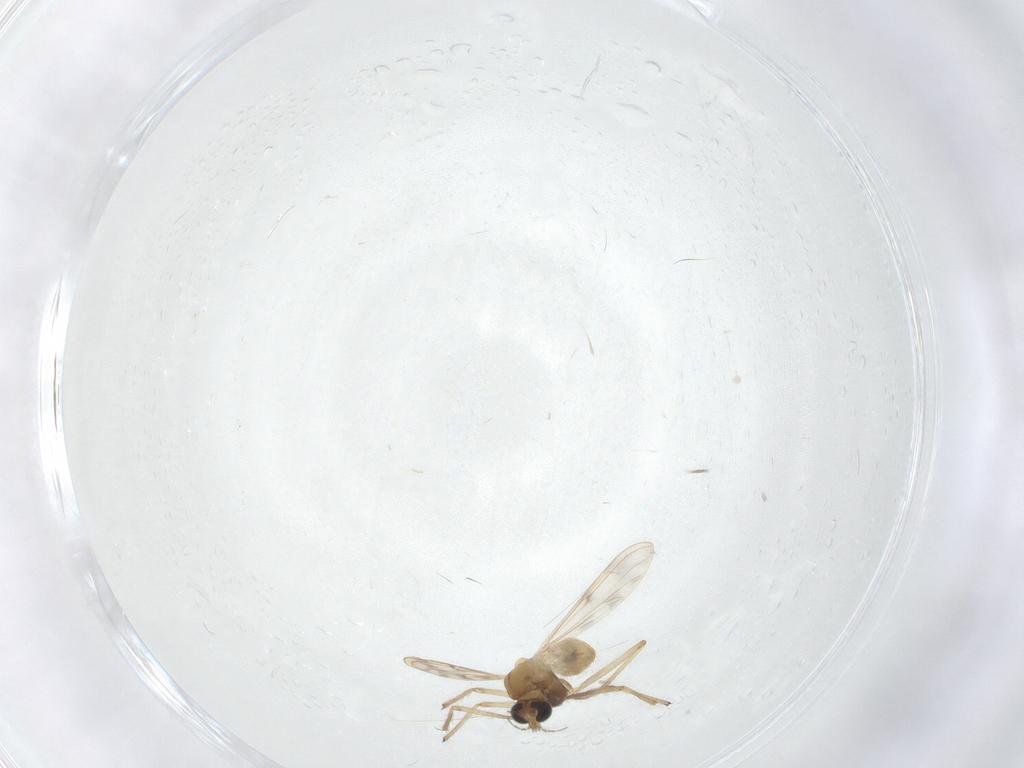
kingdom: Animalia
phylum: Arthropoda
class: Insecta
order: Diptera
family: Chironomidae
